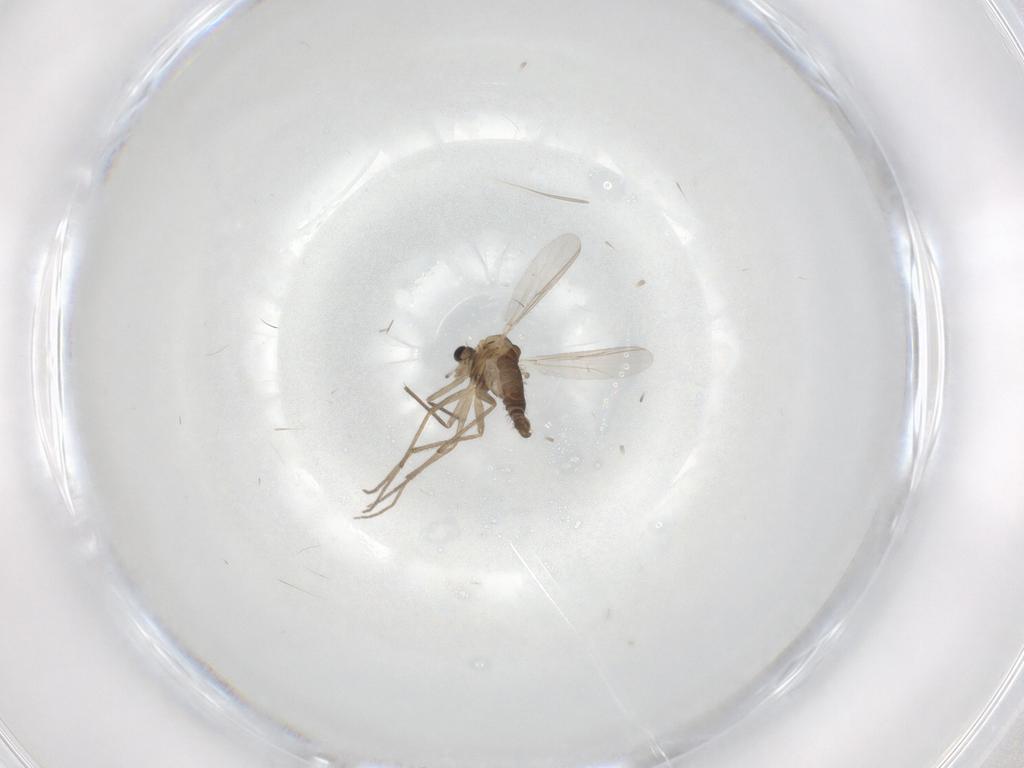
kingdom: Animalia
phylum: Arthropoda
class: Insecta
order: Diptera
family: Chironomidae
